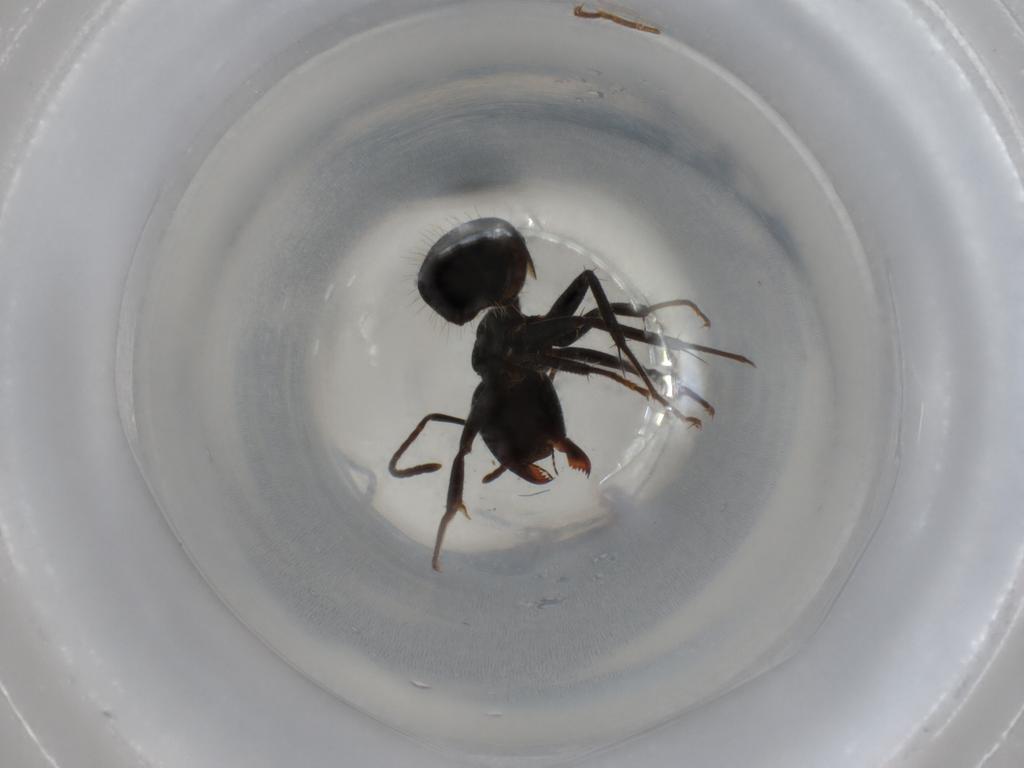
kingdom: Animalia
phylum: Arthropoda
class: Insecta
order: Hymenoptera
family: Formicidae
